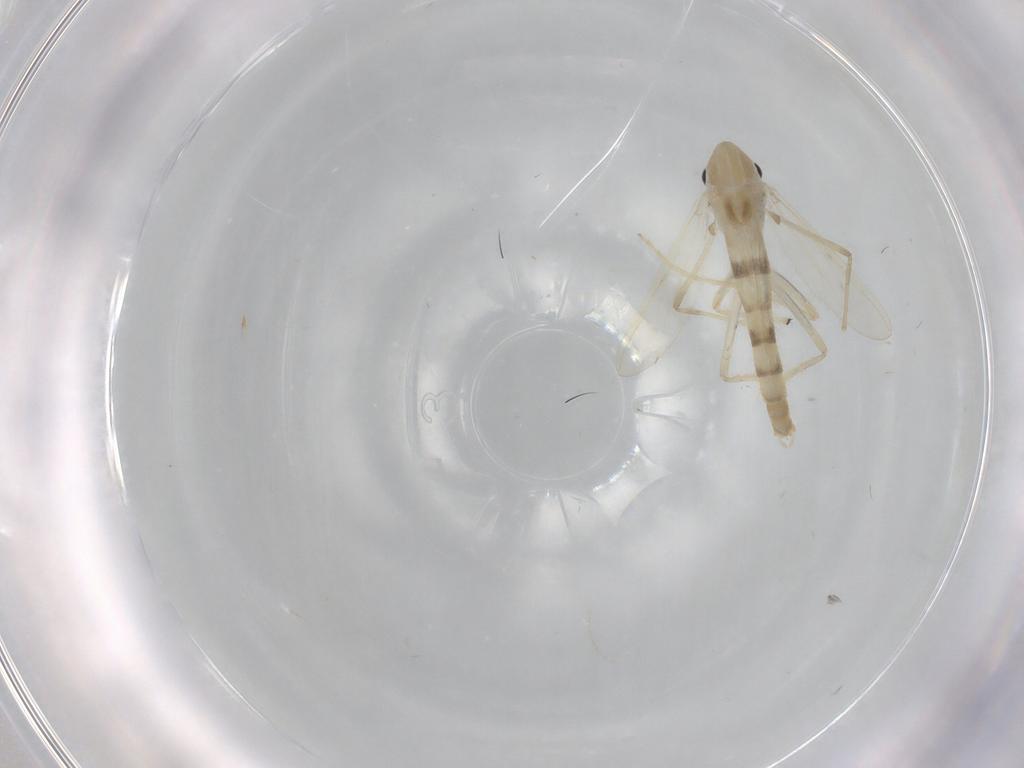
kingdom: Animalia
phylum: Arthropoda
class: Insecta
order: Diptera
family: Chironomidae
